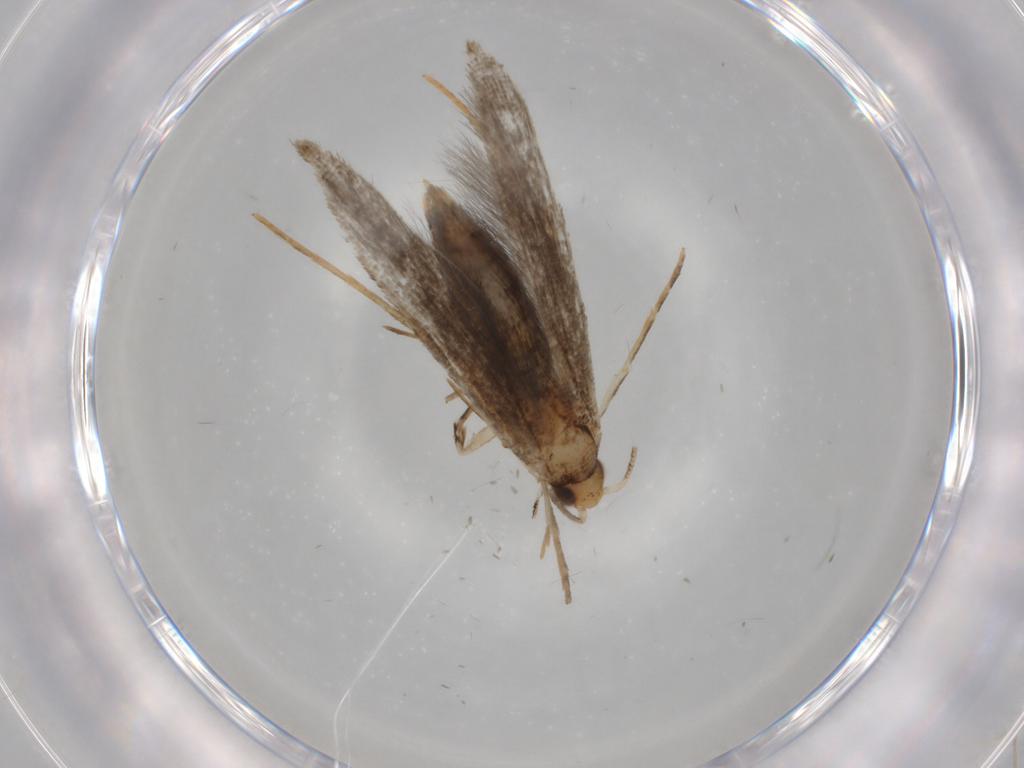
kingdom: Animalia
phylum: Arthropoda
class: Insecta
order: Lepidoptera
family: Tineidae
